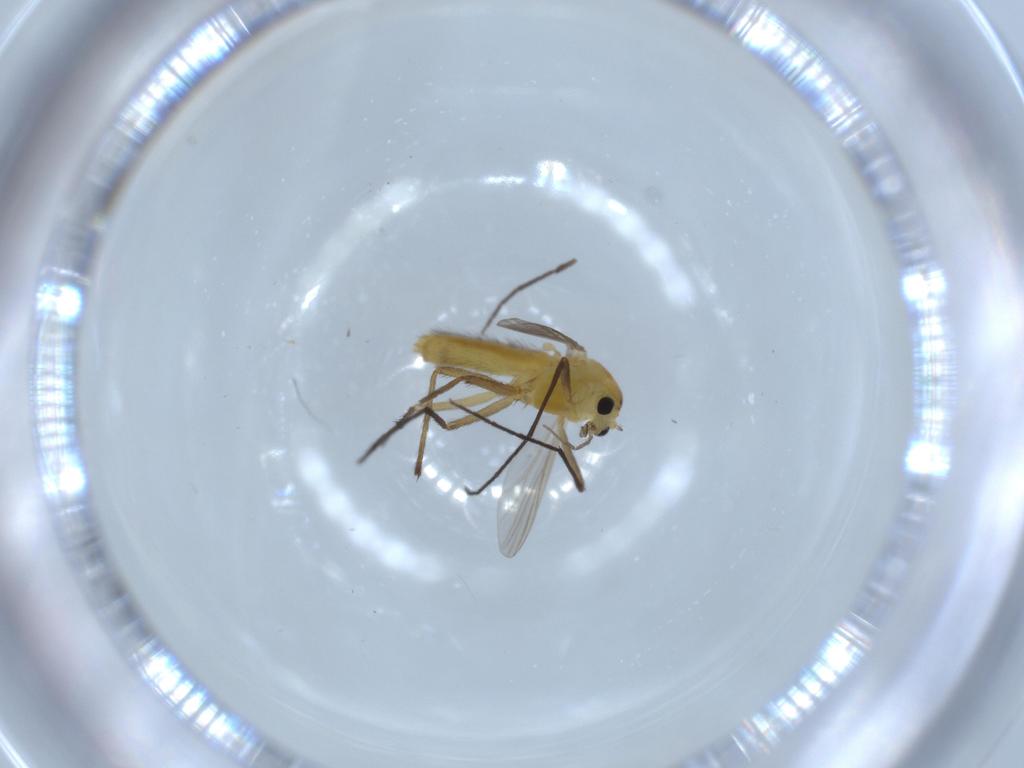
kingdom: Animalia
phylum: Arthropoda
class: Insecta
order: Diptera
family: Chironomidae
